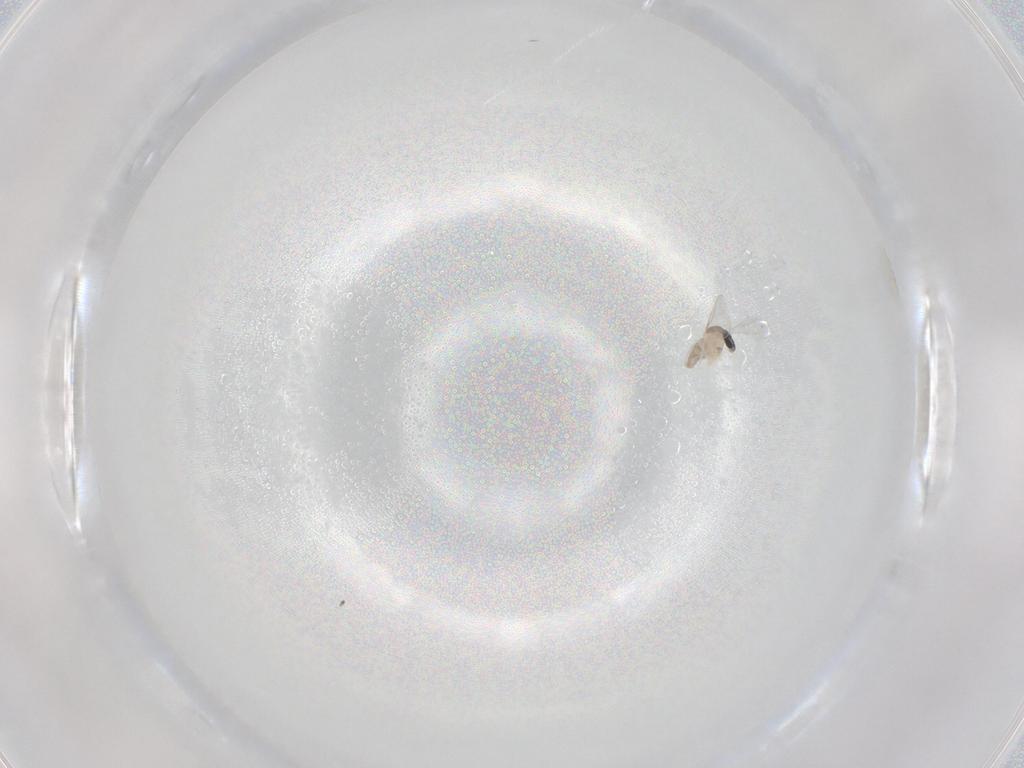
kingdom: Animalia
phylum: Arthropoda
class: Insecta
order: Diptera
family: Cecidomyiidae
